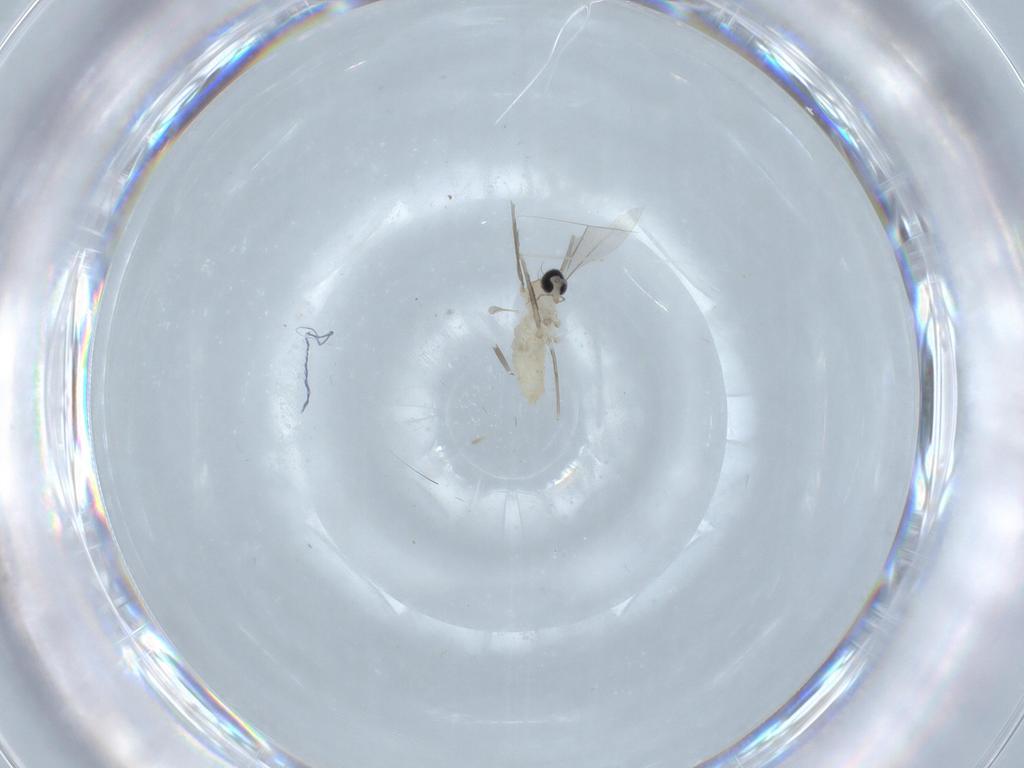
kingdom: Animalia
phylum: Arthropoda
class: Insecta
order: Diptera
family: Cecidomyiidae
